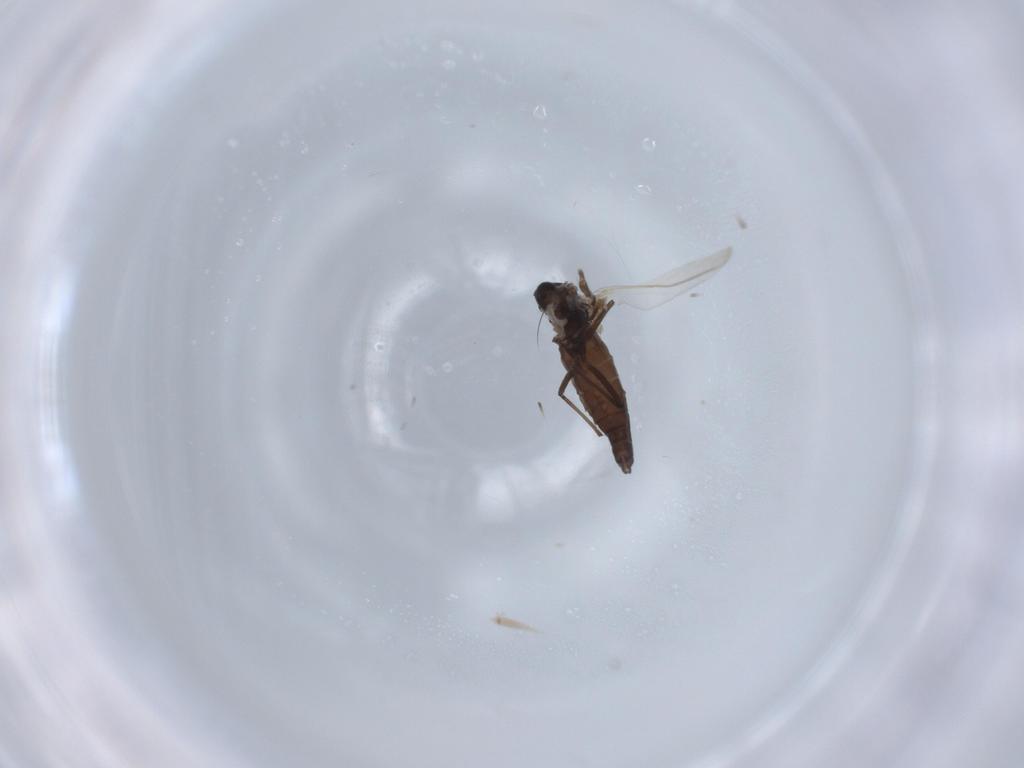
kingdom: Animalia
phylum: Arthropoda
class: Insecta
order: Diptera
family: Chironomidae
